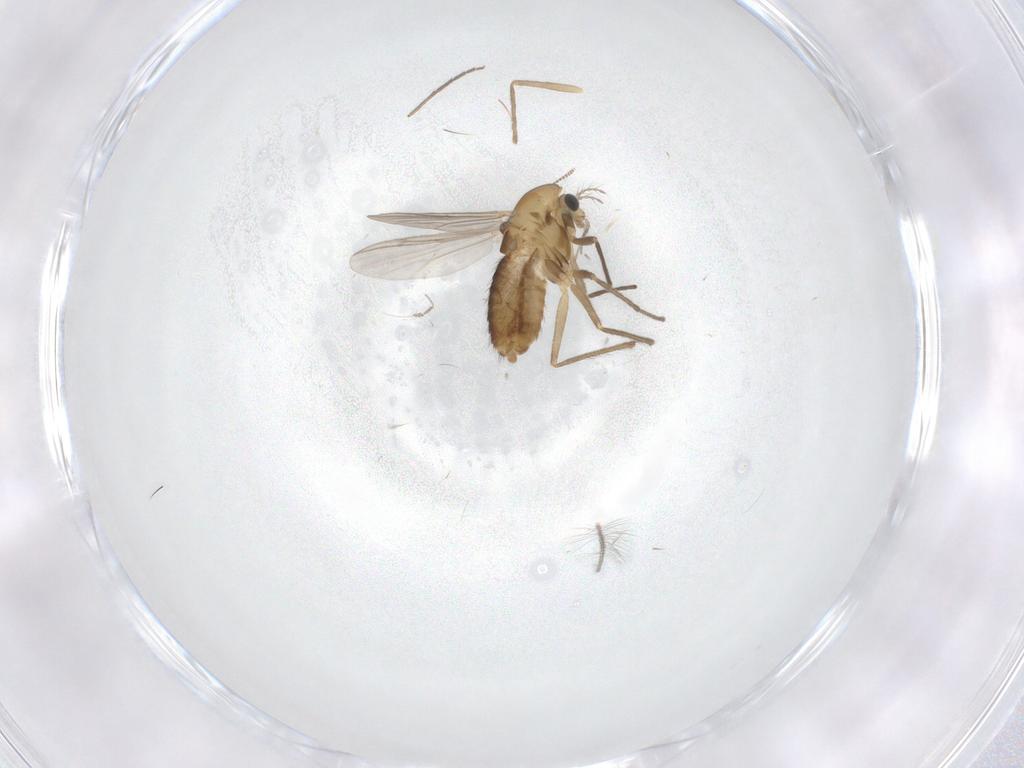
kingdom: Animalia
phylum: Arthropoda
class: Insecta
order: Diptera
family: Chironomidae
